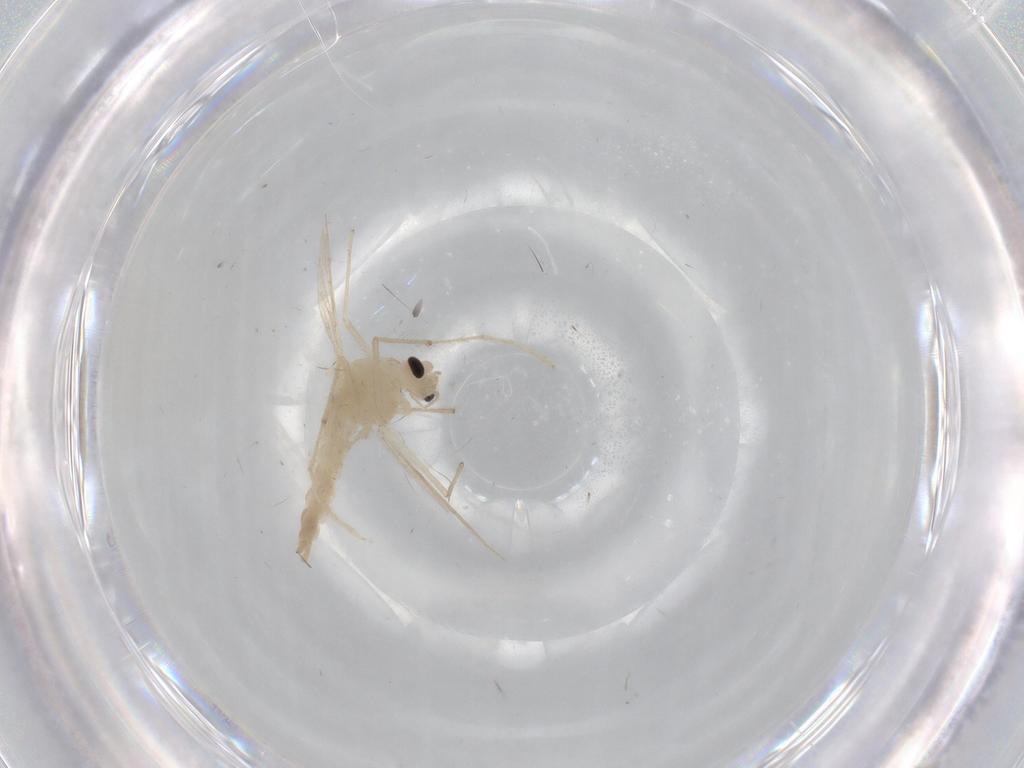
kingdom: Animalia
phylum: Arthropoda
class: Insecta
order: Diptera
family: Chironomidae
